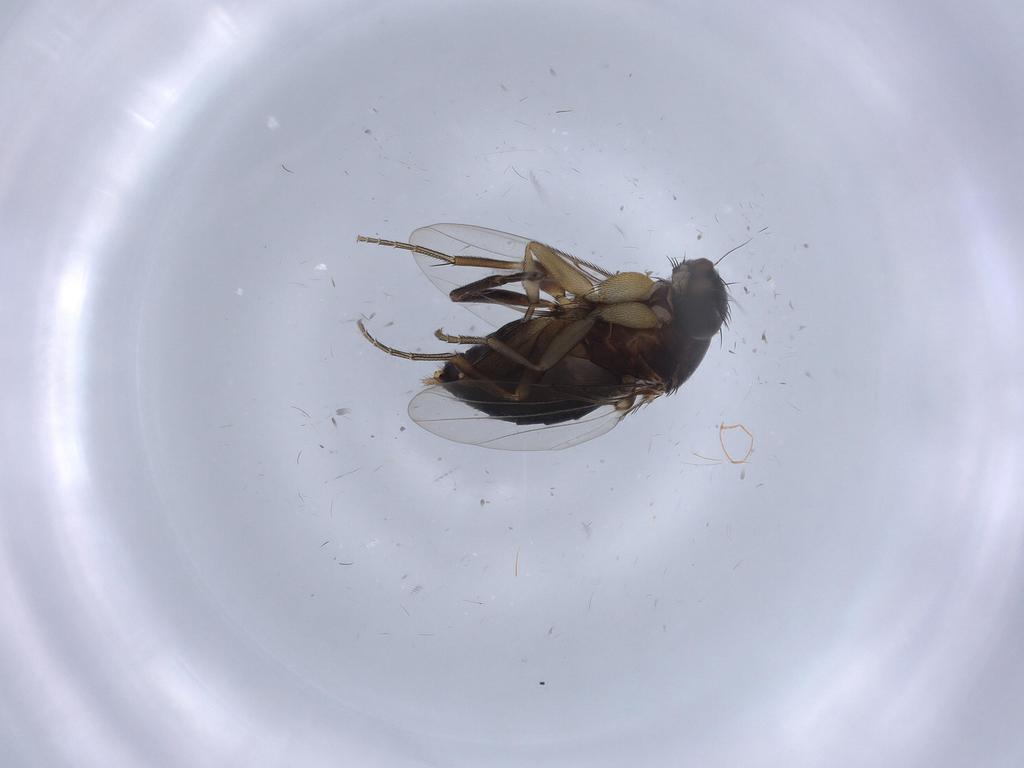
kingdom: Animalia
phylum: Arthropoda
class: Insecta
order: Diptera
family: Phoridae
